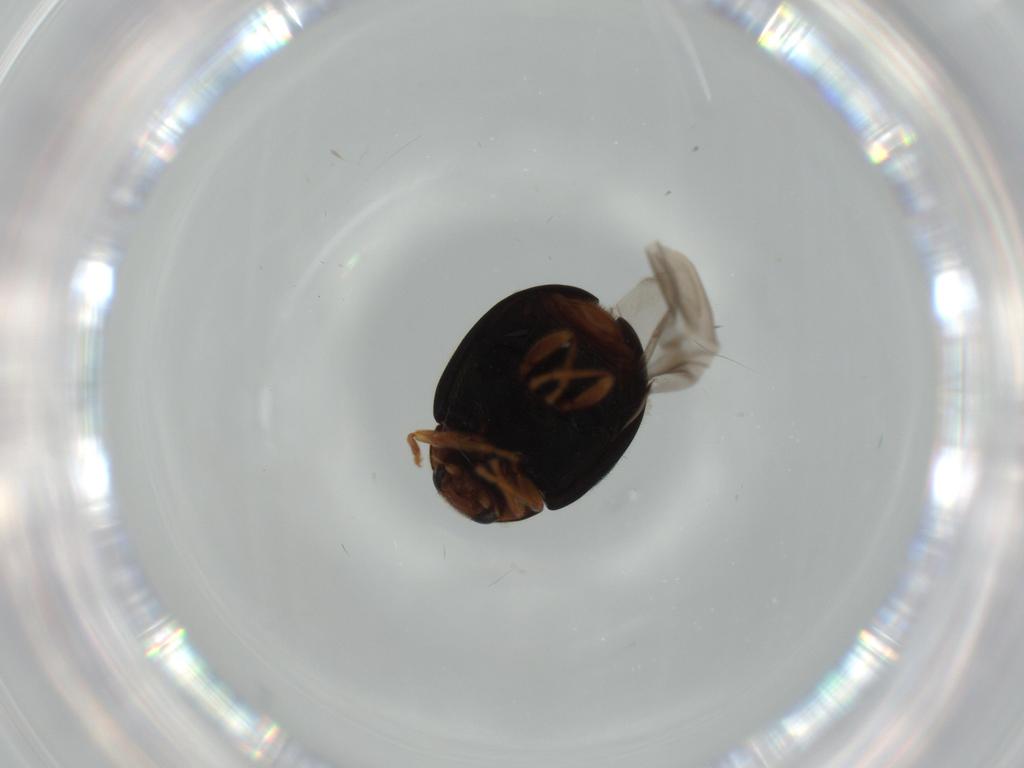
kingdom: Animalia
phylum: Arthropoda
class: Insecta
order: Coleoptera
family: Coccinellidae
